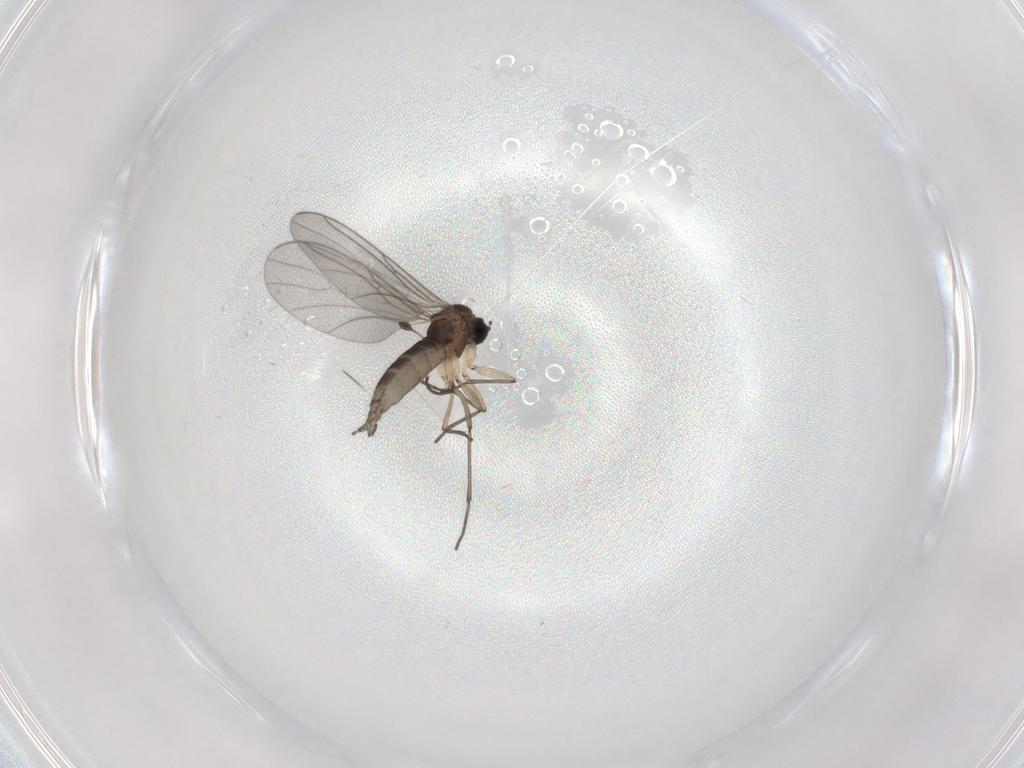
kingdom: Animalia
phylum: Arthropoda
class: Insecta
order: Diptera
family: Sciaridae
